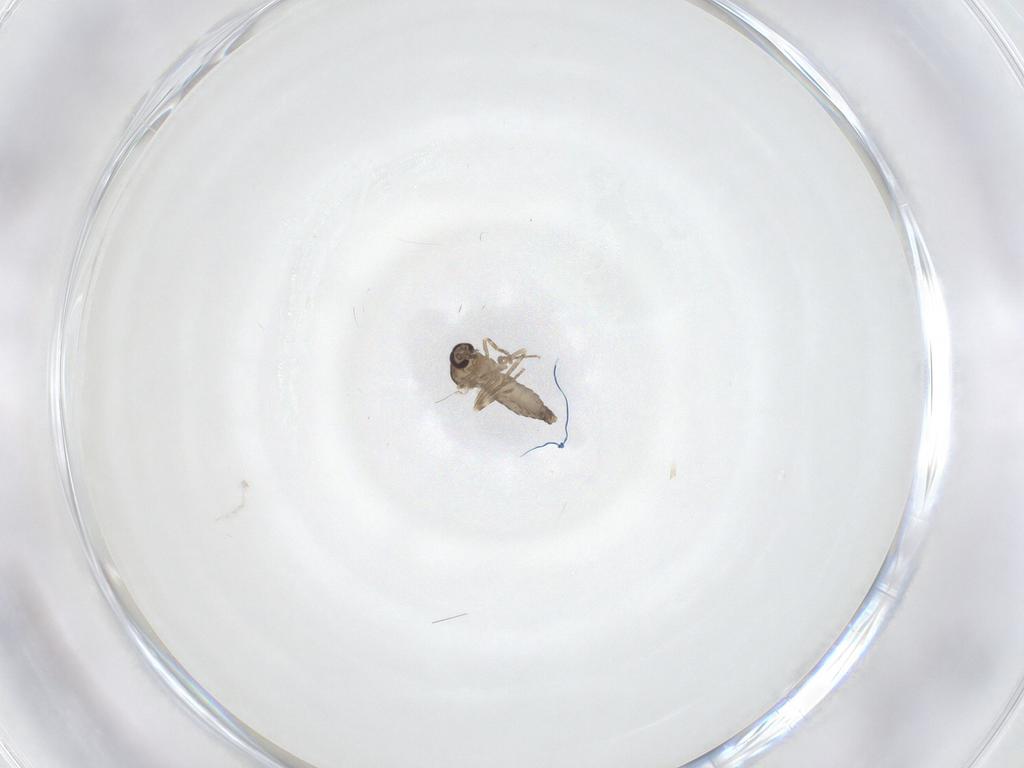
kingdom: Animalia
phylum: Arthropoda
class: Insecta
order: Diptera
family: Ceratopogonidae
